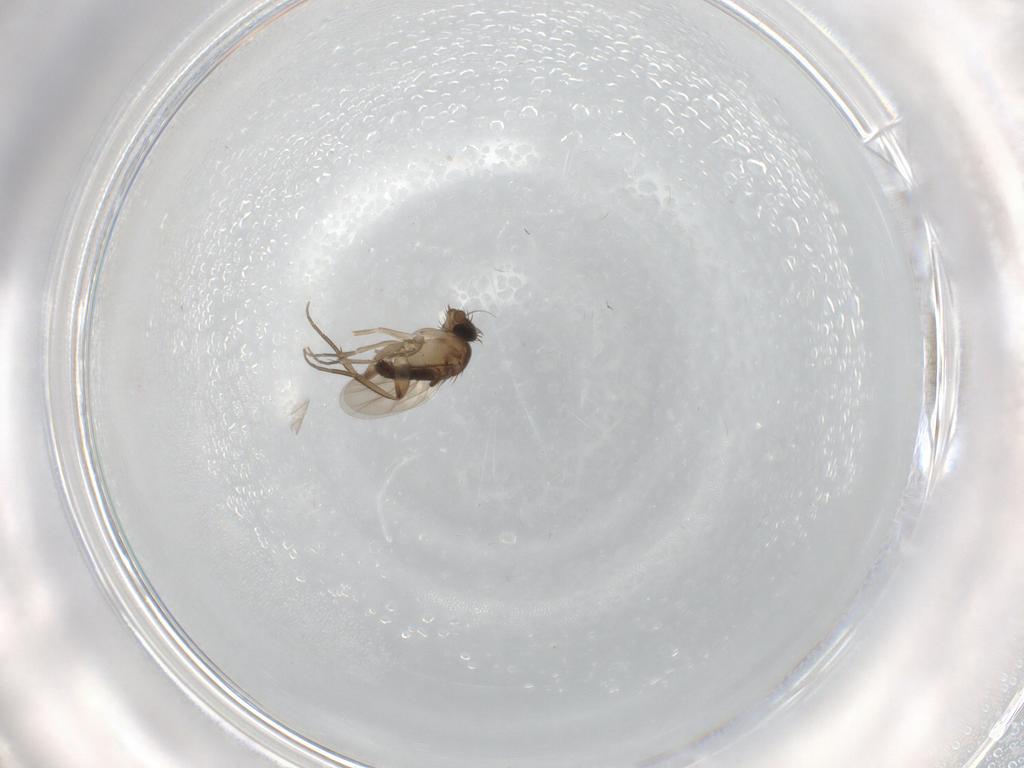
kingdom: Animalia
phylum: Arthropoda
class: Insecta
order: Diptera
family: Cecidomyiidae
